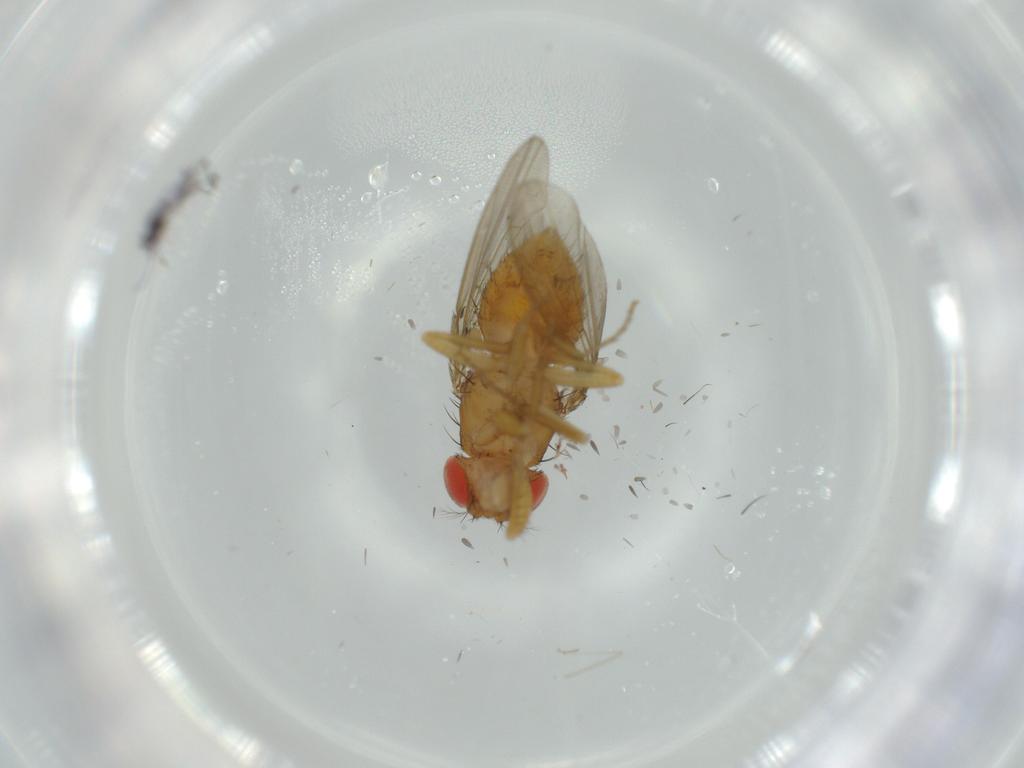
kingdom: Animalia
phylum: Arthropoda
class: Insecta
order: Diptera
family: Drosophilidae
